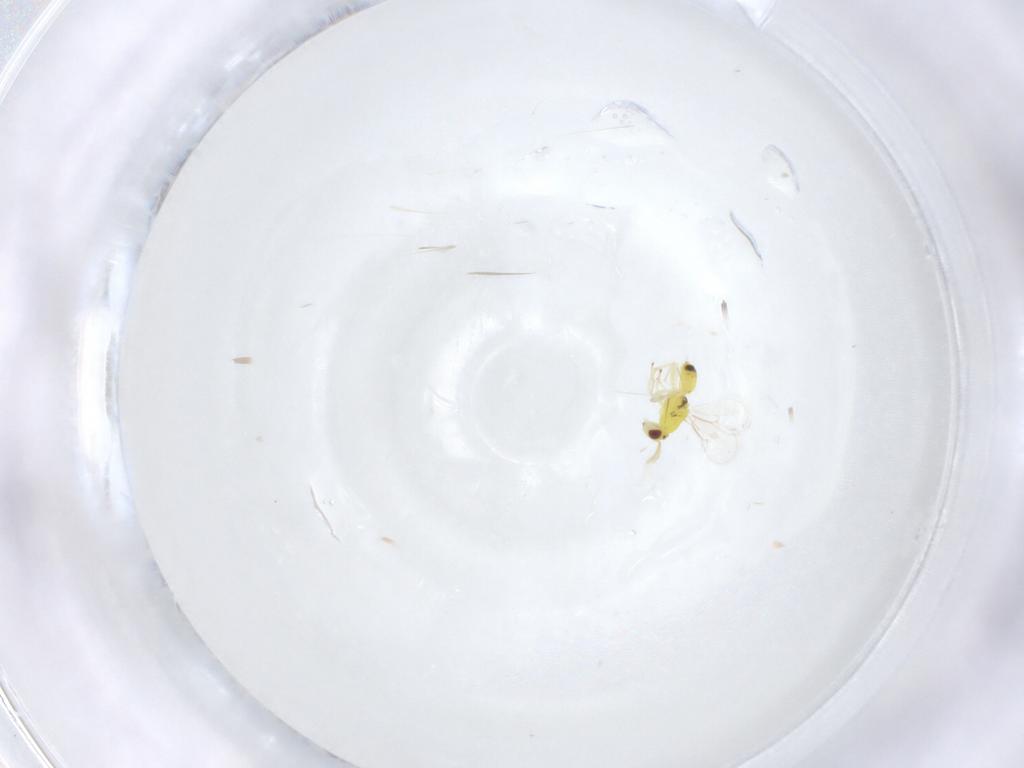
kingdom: Animalia
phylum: Arthropoda
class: Insecta
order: Hymenoptera
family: Eulophidae
